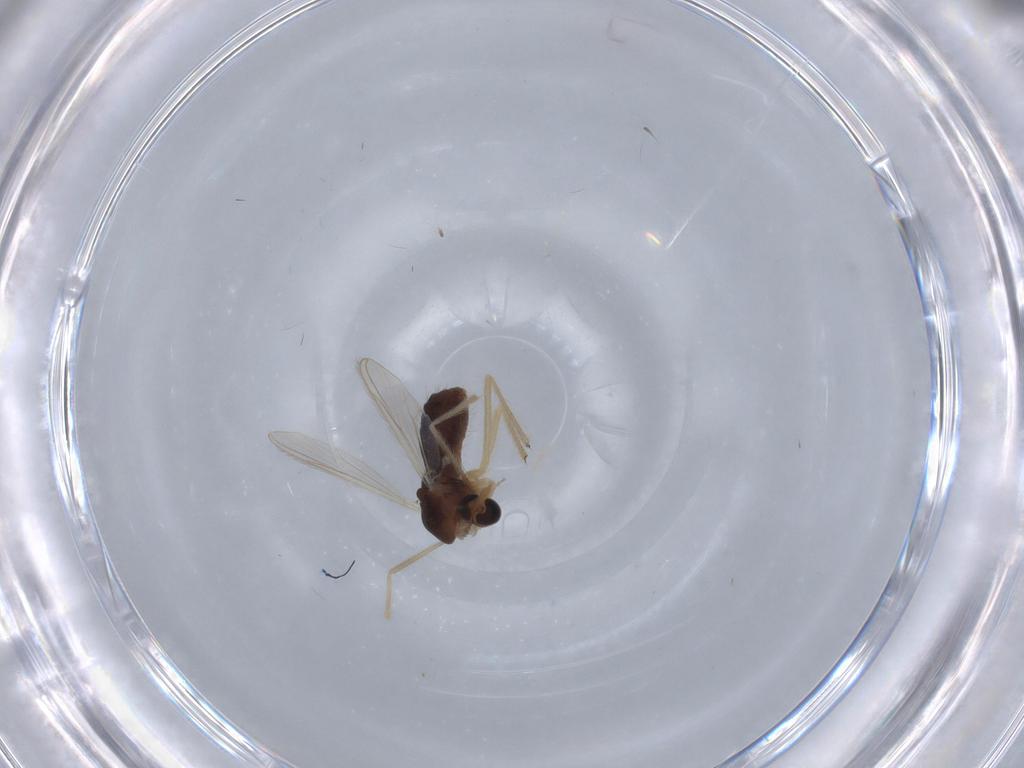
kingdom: Animalia
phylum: Arthropoda
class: Insecta
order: Diptera
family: Chironomidae
